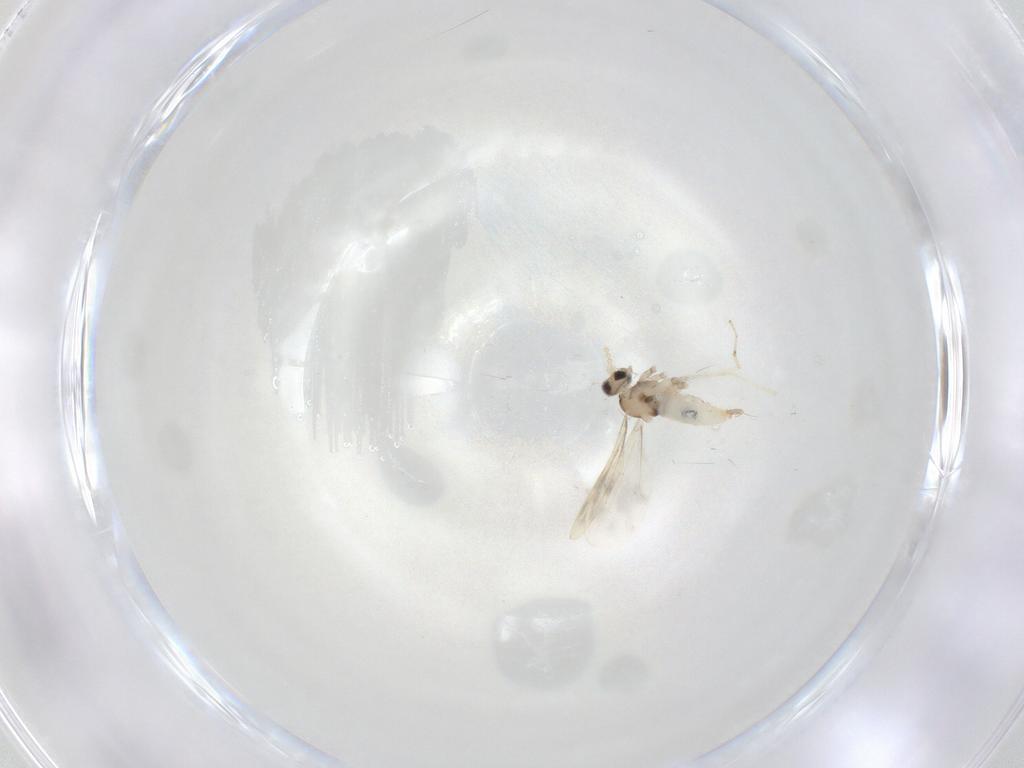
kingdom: Animalia
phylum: Arthropoda
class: Insecta
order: Diptera
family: Cecidomyiidae
